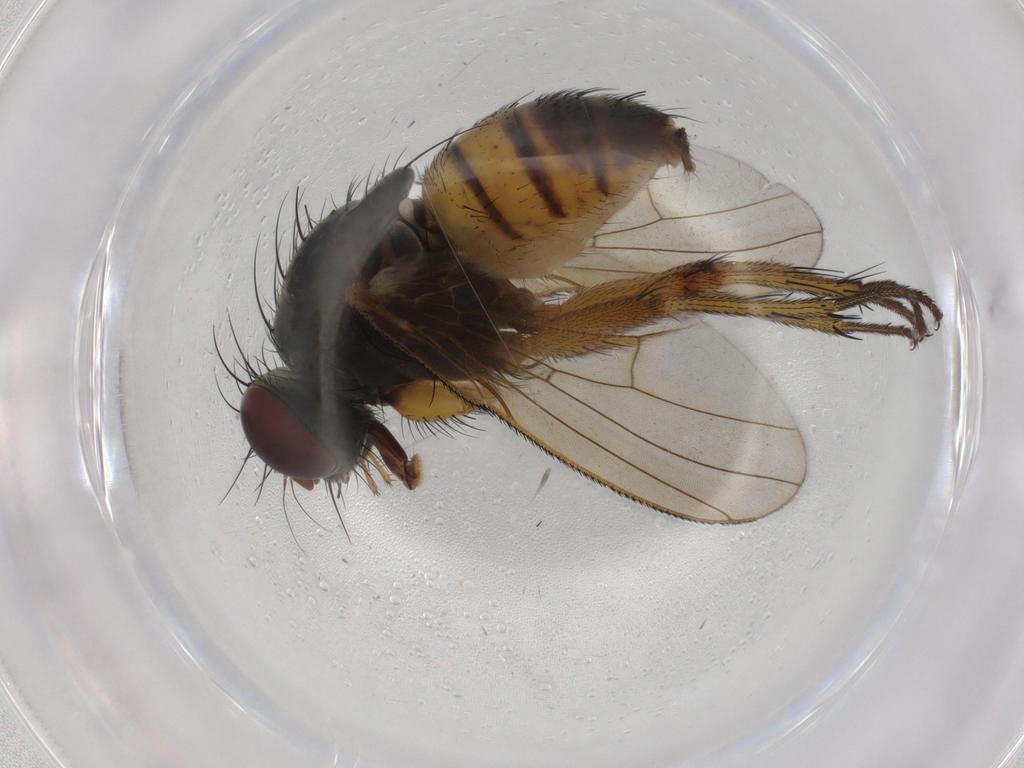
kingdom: Animalia
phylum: Arthropoda
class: Insecta
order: Diptera
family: Muscidae
